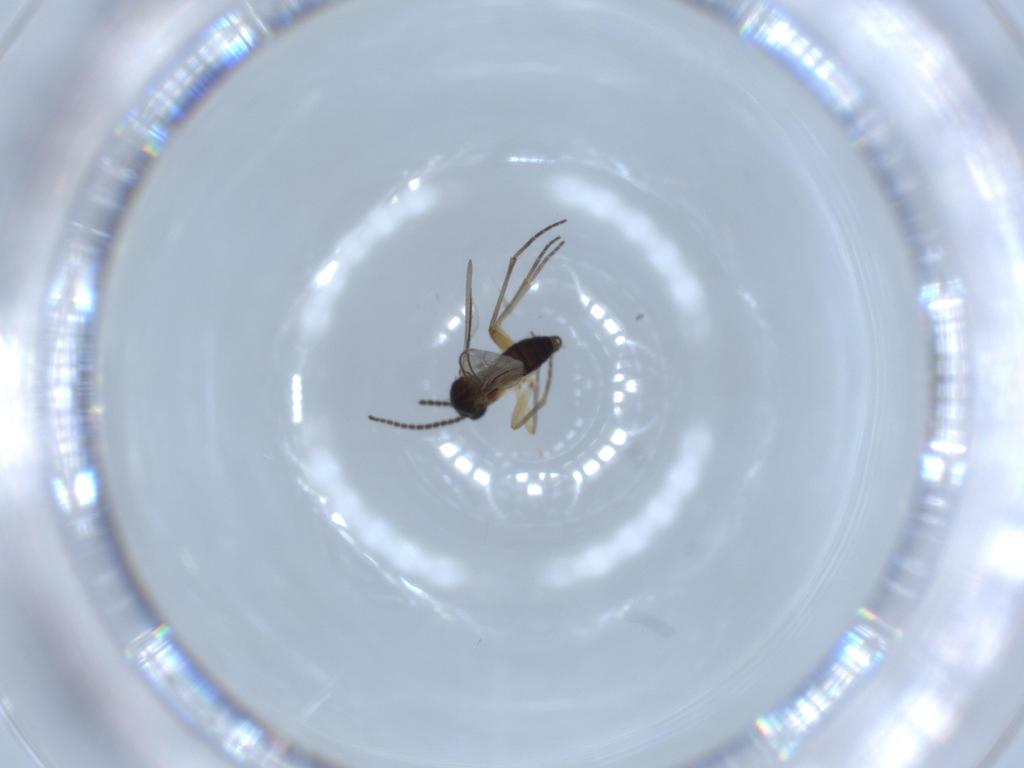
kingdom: Animalia
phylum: Arthropoda
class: Insecta
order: Diptera
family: Sciaridae
